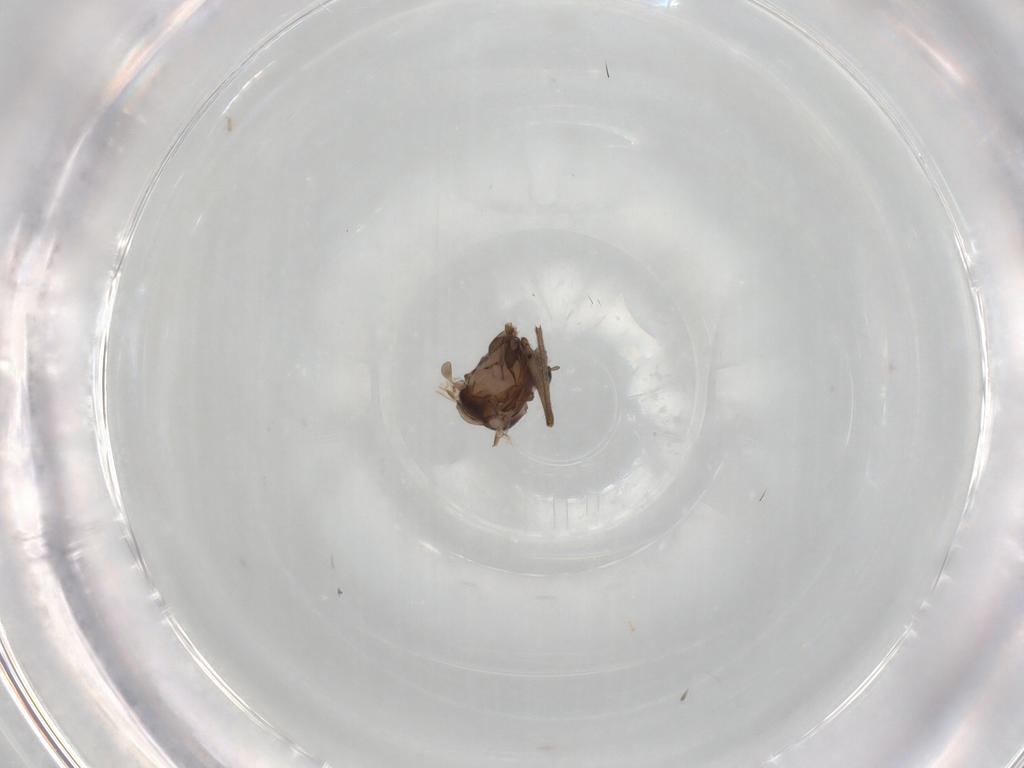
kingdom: Animalia
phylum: Arthropoda
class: Insecta
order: Diptera
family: Chironomidae
